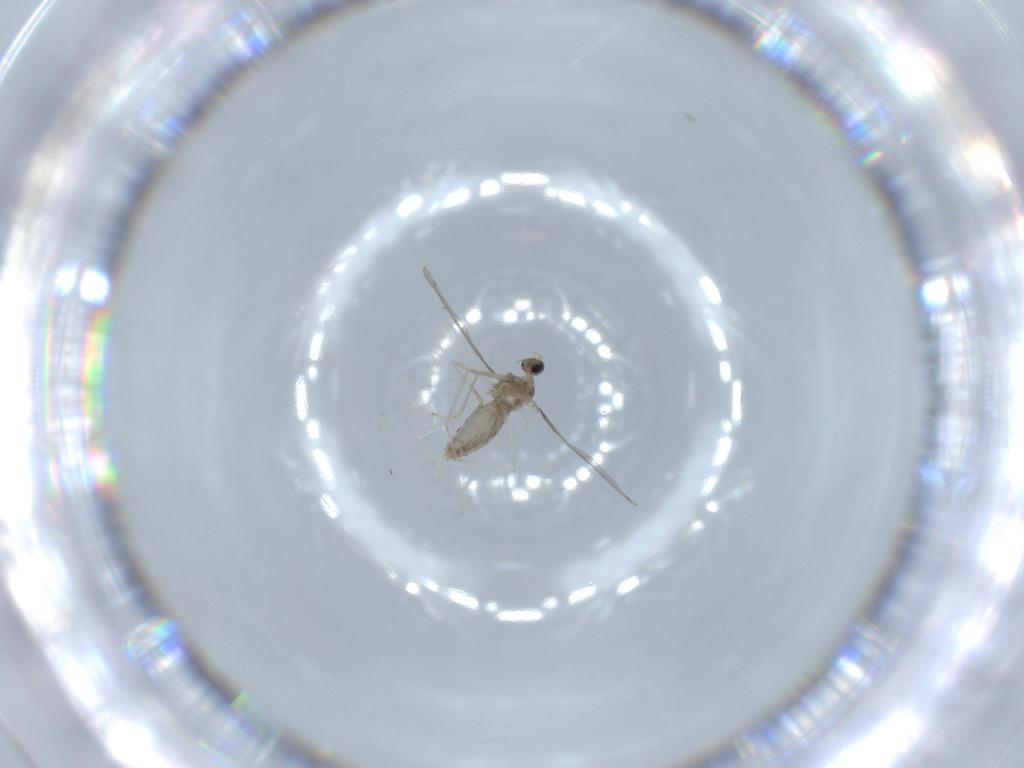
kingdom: Animalia
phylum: Arthropoda
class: Insecta
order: Diptera
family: Cecidomyiidae
